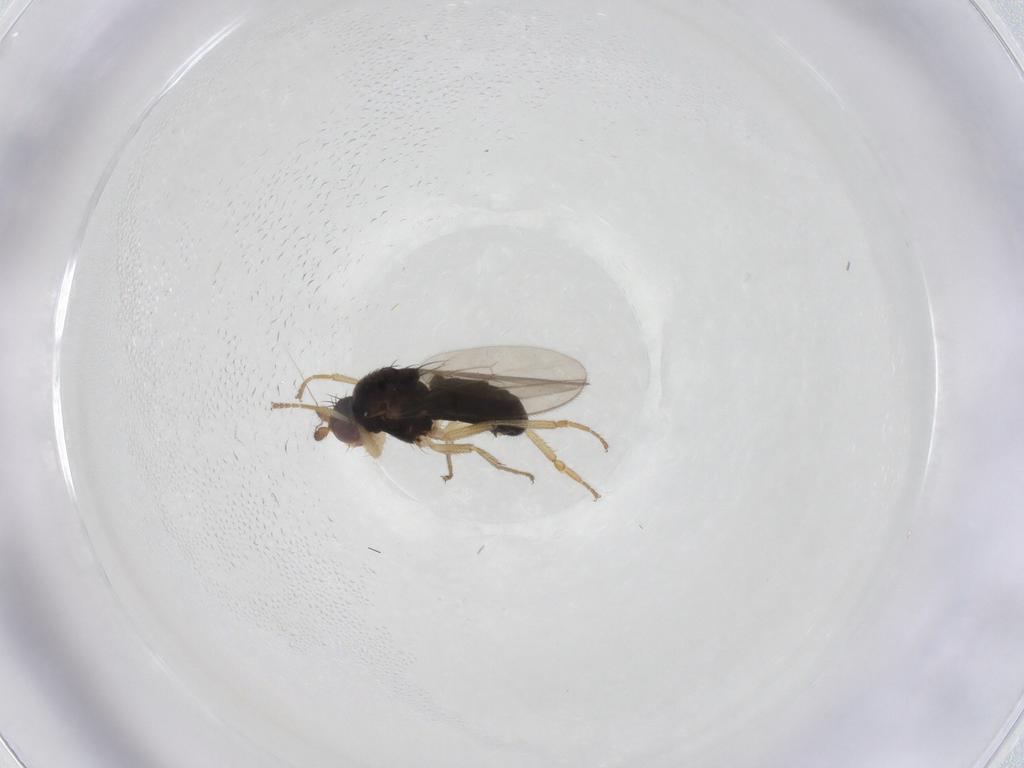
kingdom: Animalia
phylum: Arthropoda
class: Insecta
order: Diptera
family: Sphaeroceridae
